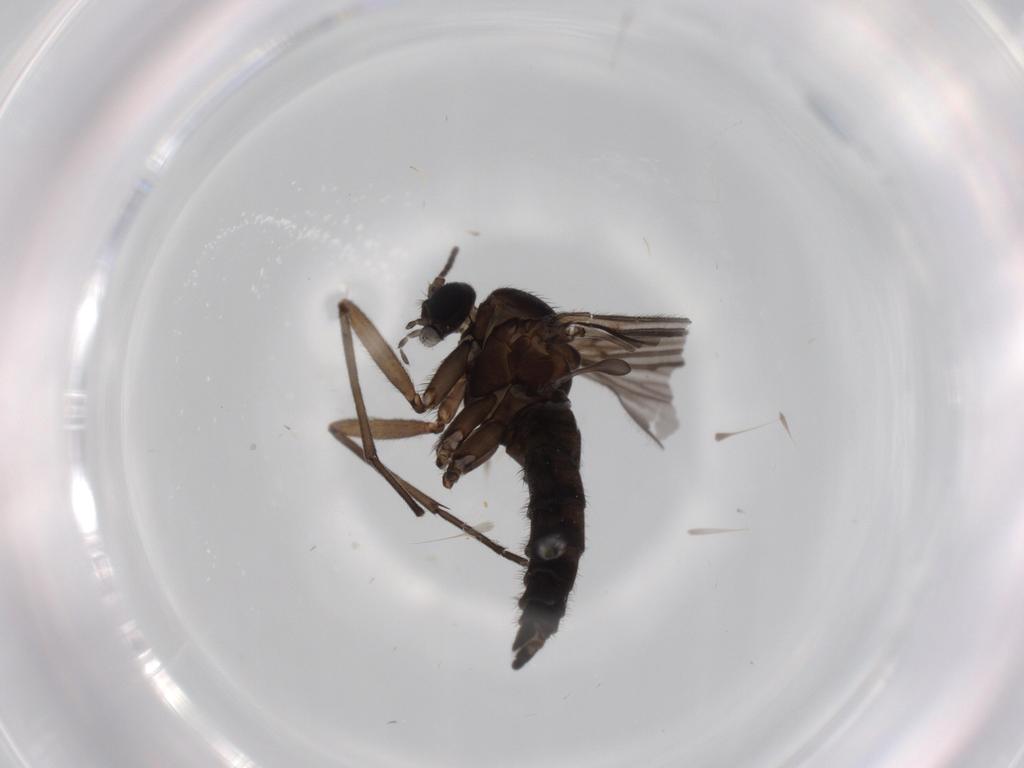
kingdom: Animalia
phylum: Arthropoda
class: Insecta
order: Diptera
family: Sciaridae
